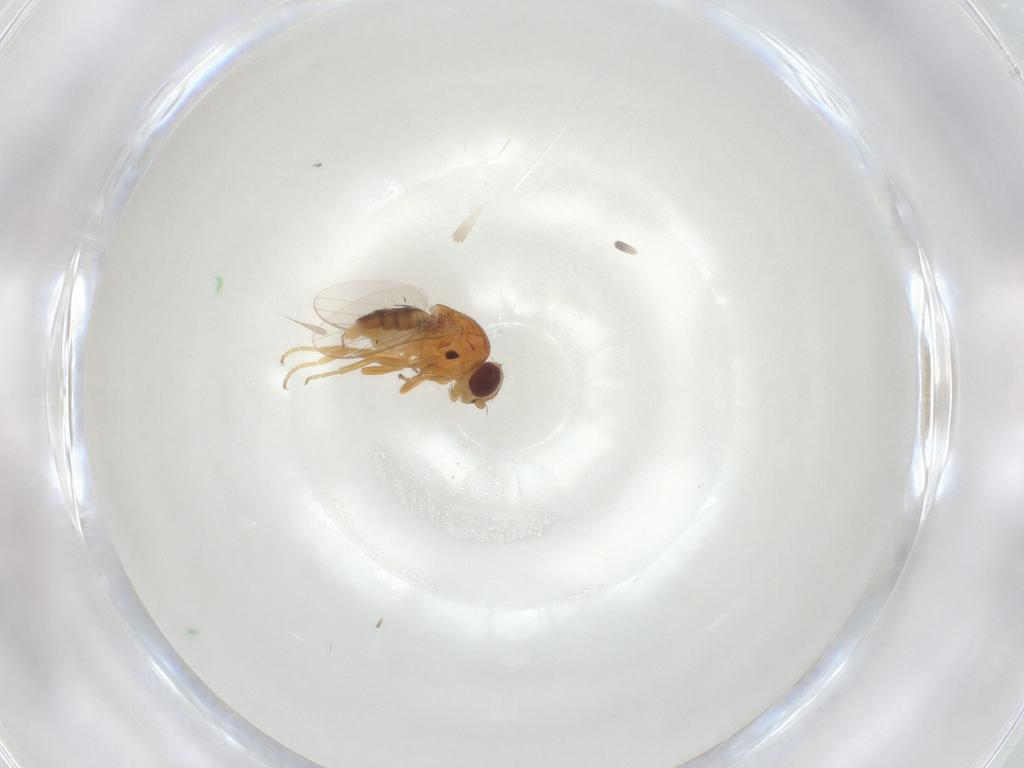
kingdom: Animalia
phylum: Arthropoda
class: Insecta
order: Diptera
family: Chloropidae
